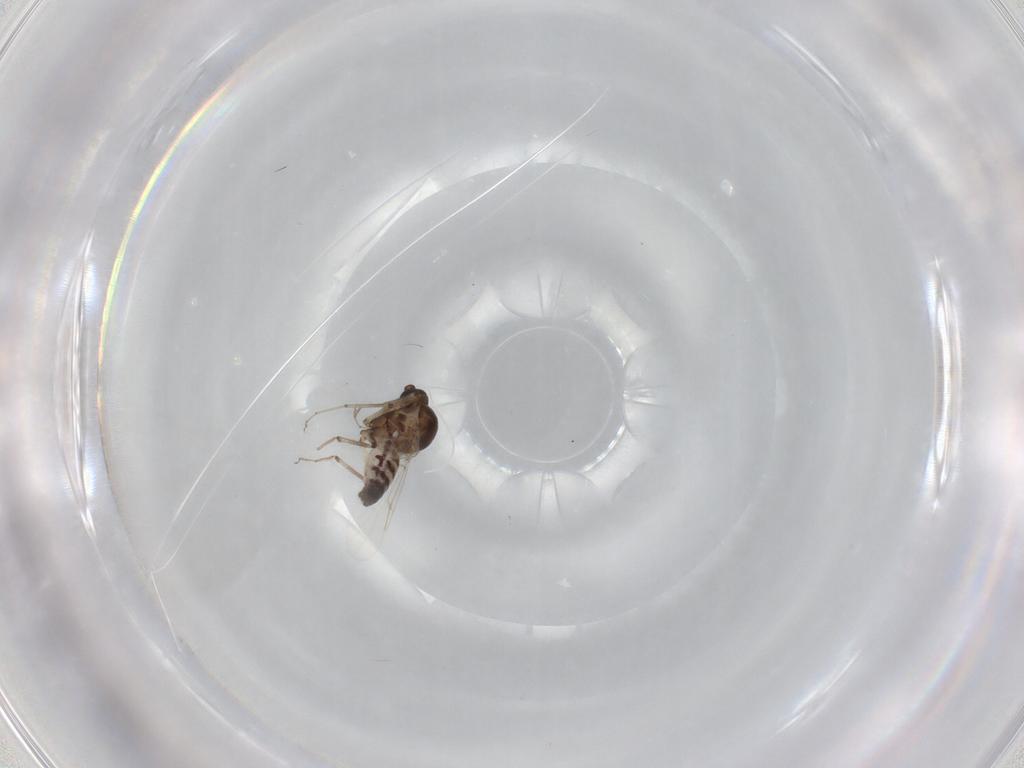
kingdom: Animalia
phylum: Arthropoda
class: Insecta
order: Diptera
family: Ceratopogonidae
